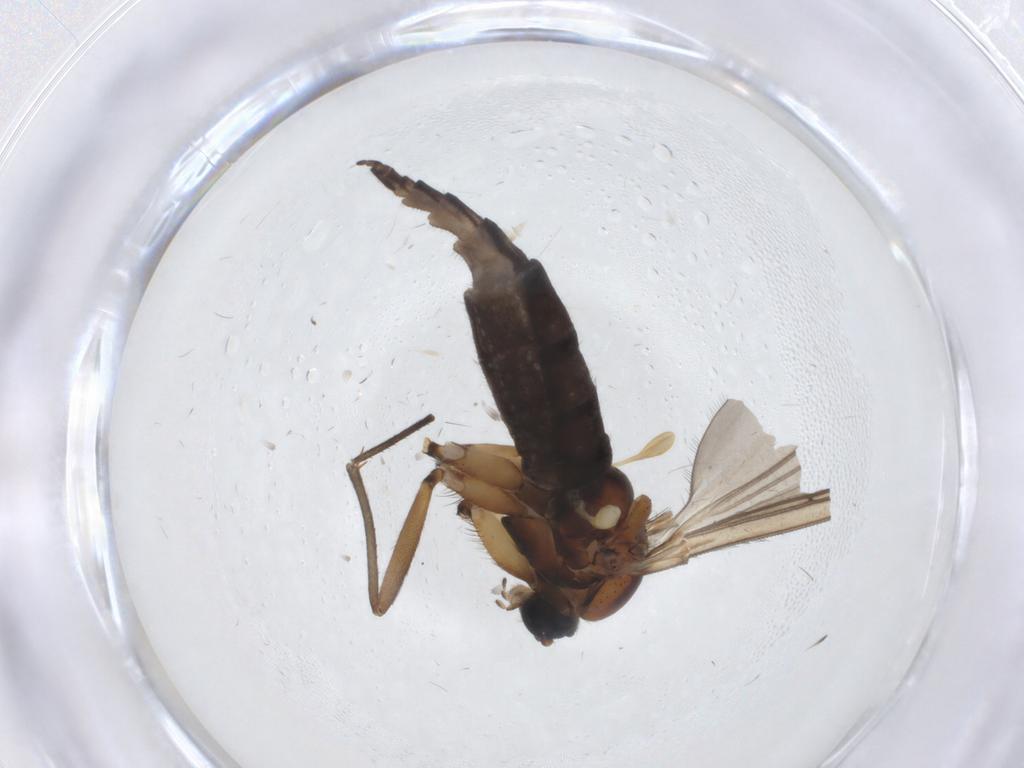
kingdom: Animalia
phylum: Arthropoda
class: Insecta
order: Diptera
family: Sciaridae
